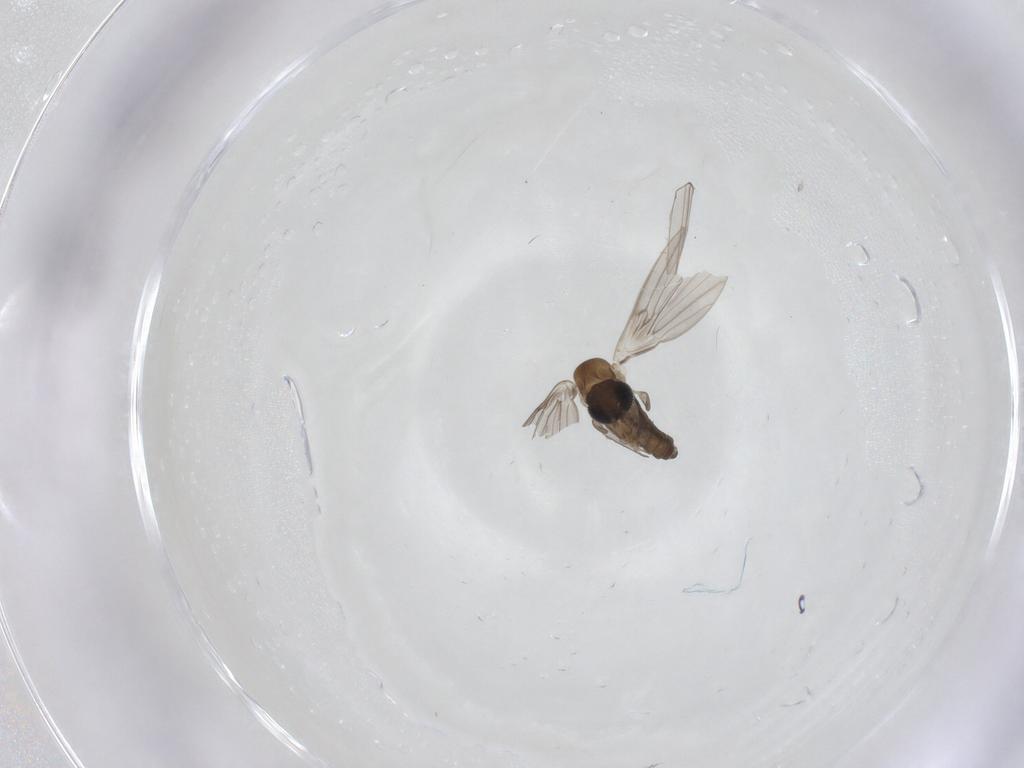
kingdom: Animalia
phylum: Arthropoda
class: Insecta
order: Diptera
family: Psychodidae
